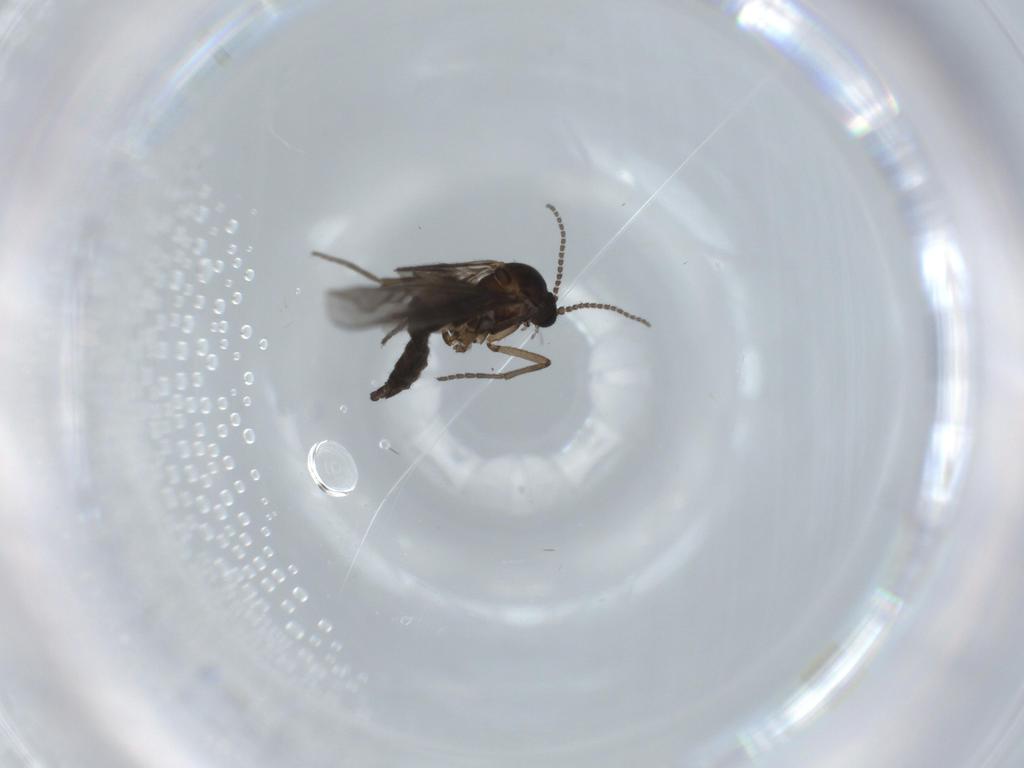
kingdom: Animalia
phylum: Arthropoda
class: Insecta
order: Diptera
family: Sciaridae
